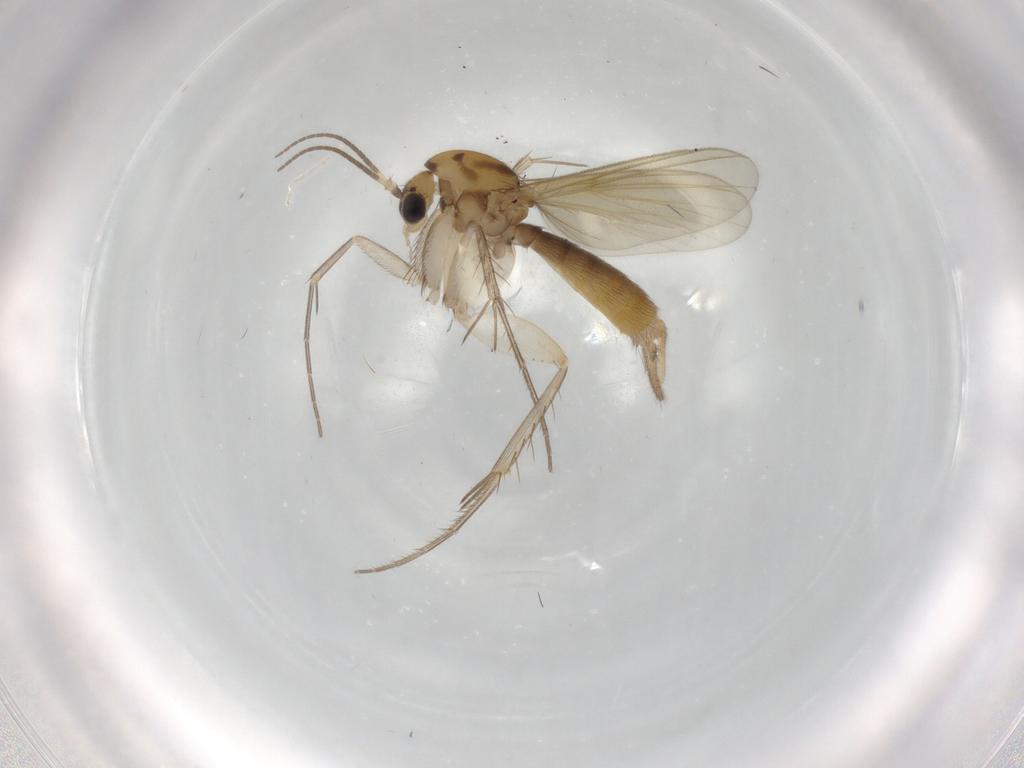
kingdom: Animalia
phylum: Arthropoda
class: Insecta
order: Diptera
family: Mycetophilidae
